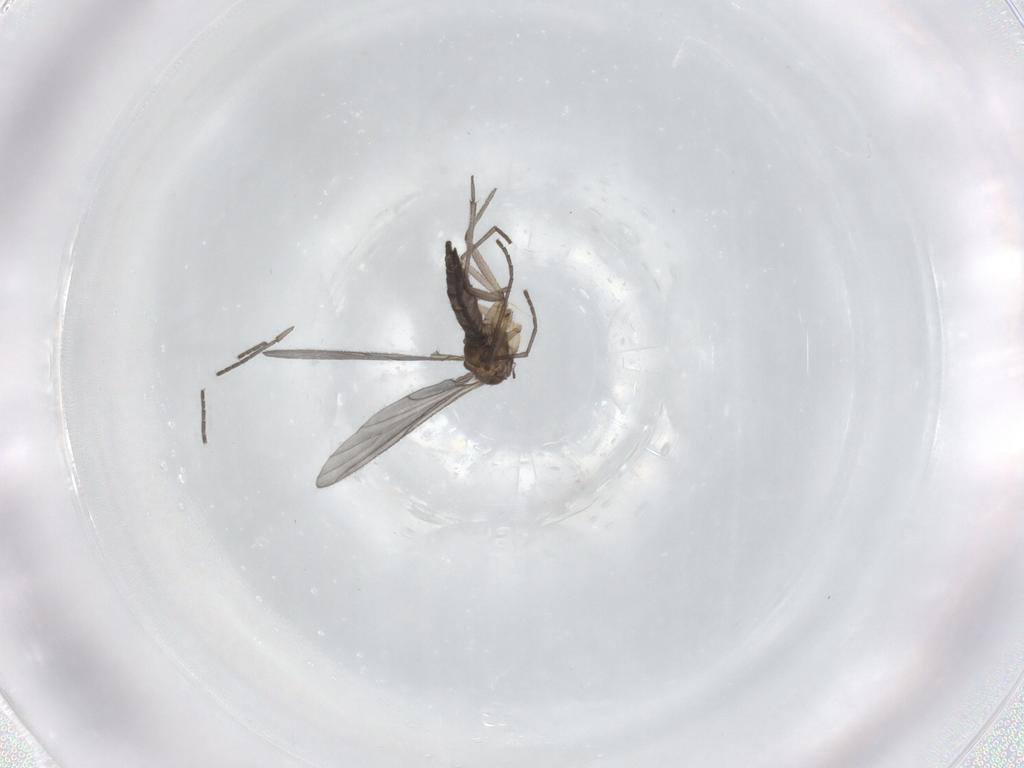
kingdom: Animalia
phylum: Arthropoda
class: Insecta
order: Diptera
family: Sciaridae
